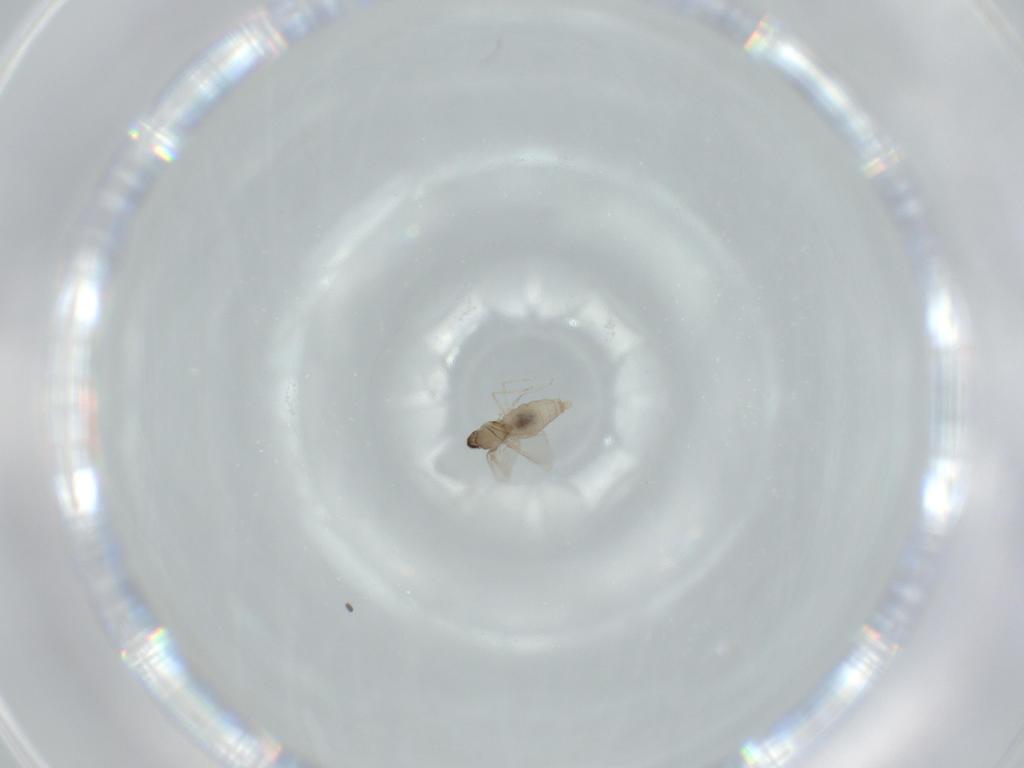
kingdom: Animalia
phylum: Arthropoda
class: Insecta
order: Diptera
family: Cecidomyiidae
